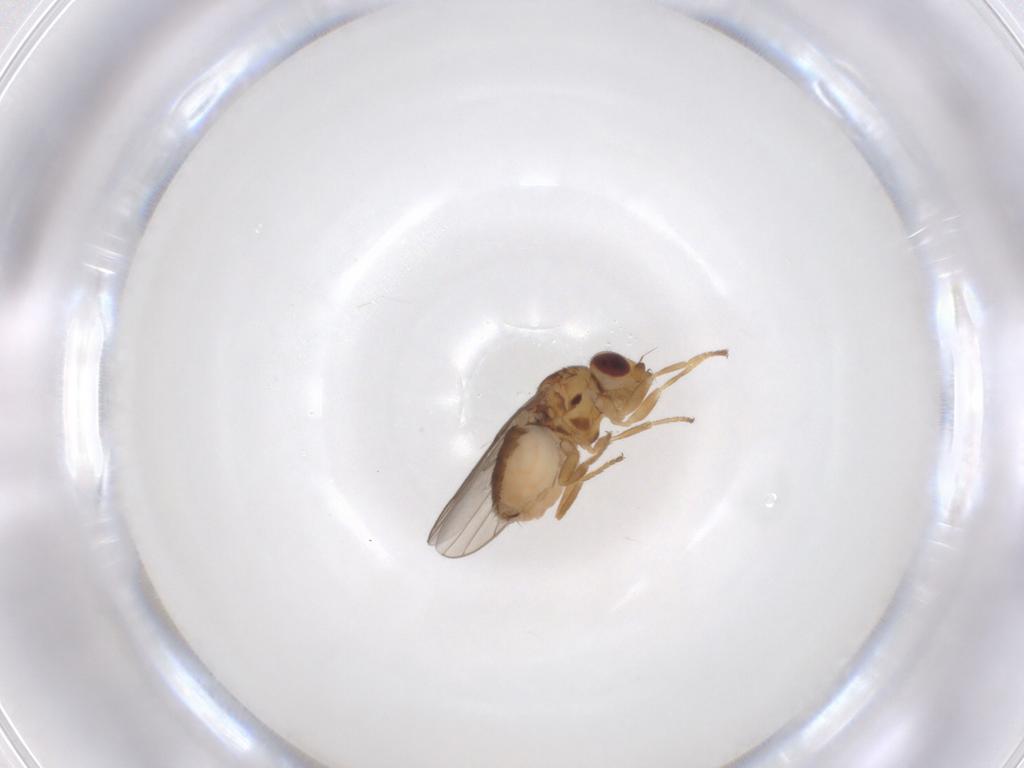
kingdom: Animalia
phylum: Arthropoda
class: Insecta
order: Diptera
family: Chloropidae
